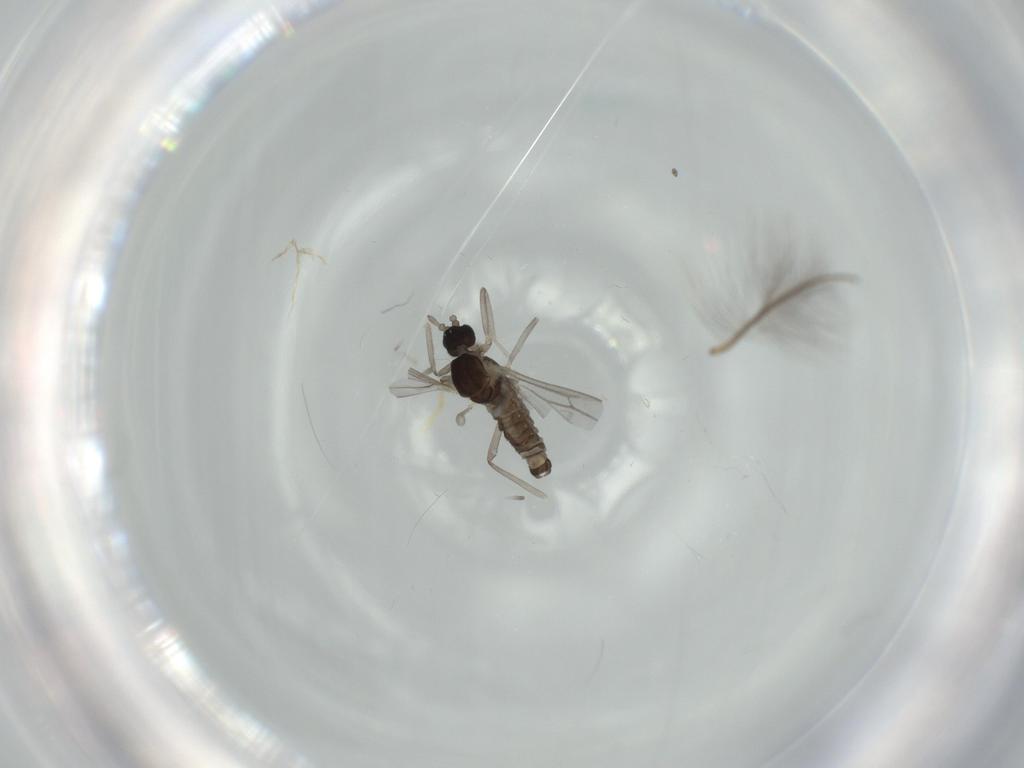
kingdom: Animalia
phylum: Arthropoda
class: Insecta
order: Diptera
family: Cecidomyiidae
